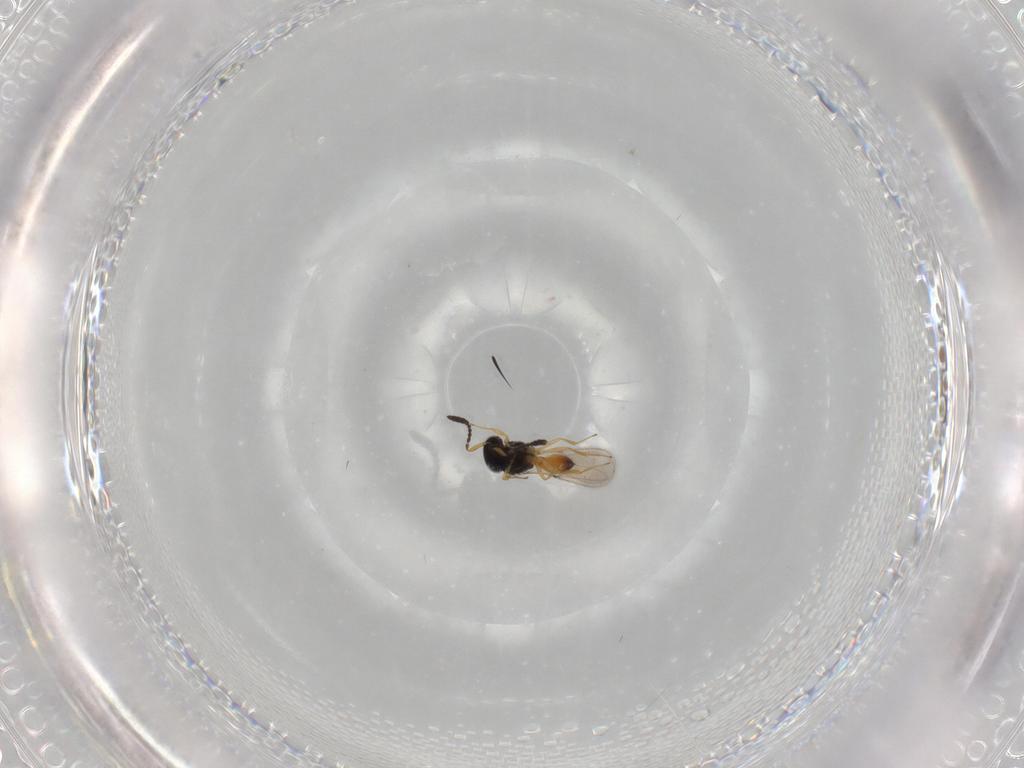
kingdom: Animalia
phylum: Arthropoda
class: Insecta
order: Hymenoptera
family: Scelionidae
